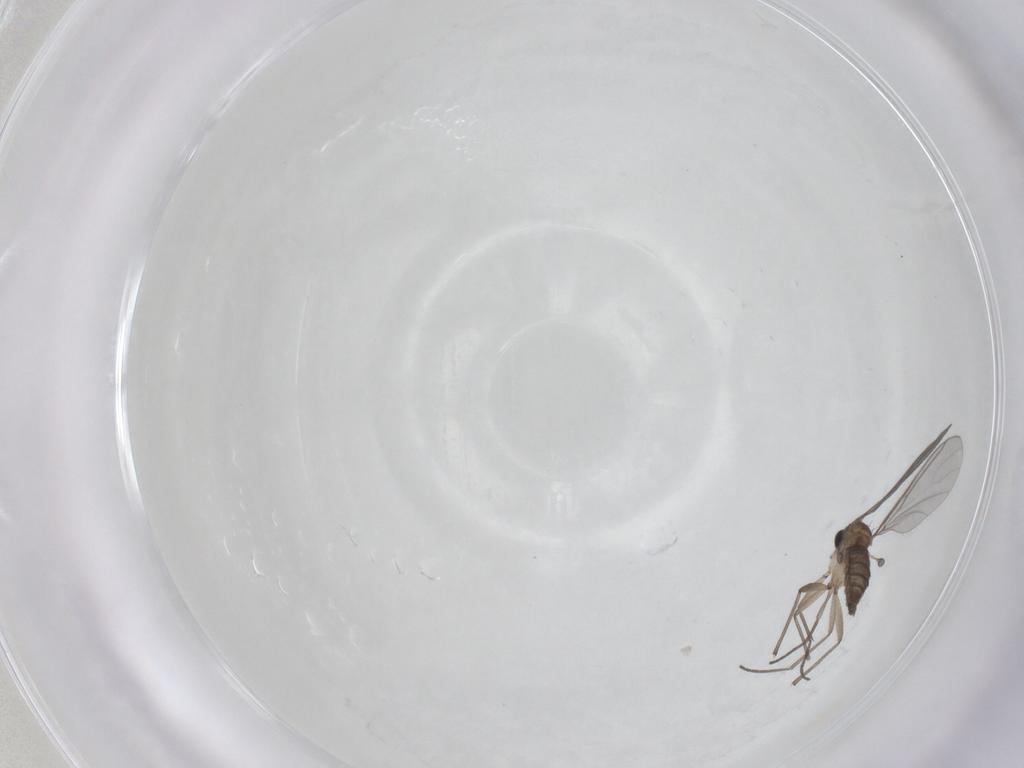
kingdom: Animalia
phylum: Arthropoda
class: Insecta
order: Diptera
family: Sciaridae
